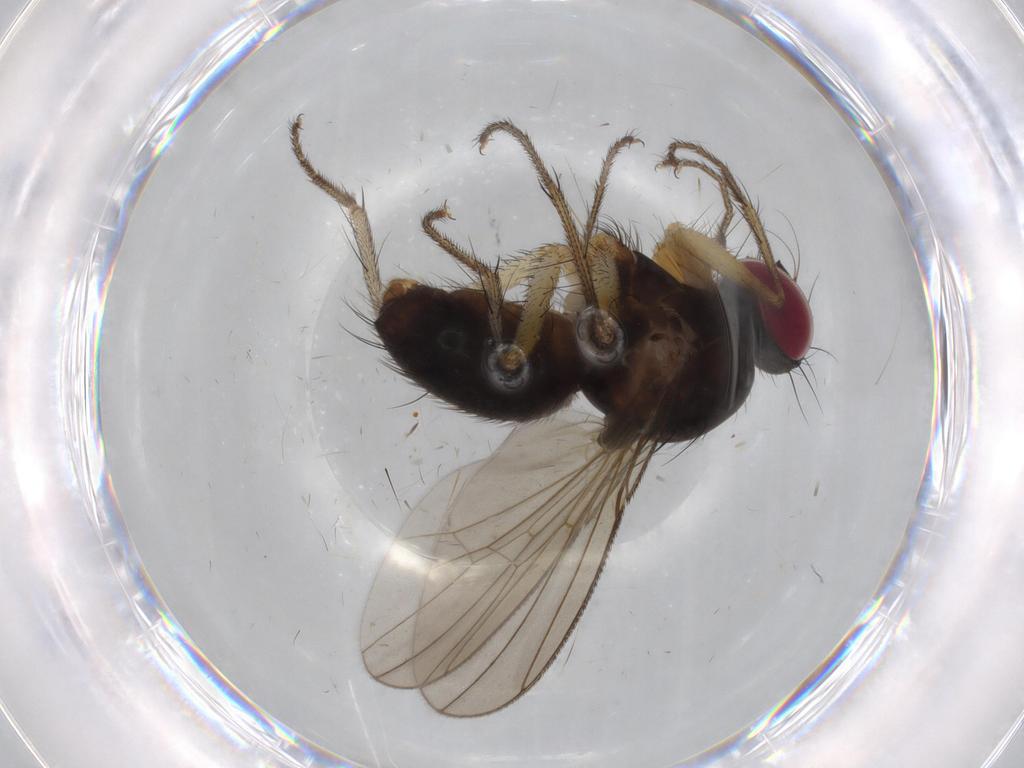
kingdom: Animalia
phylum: Arthropoda
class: Insecta
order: Diptera
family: Anthomyiidae
